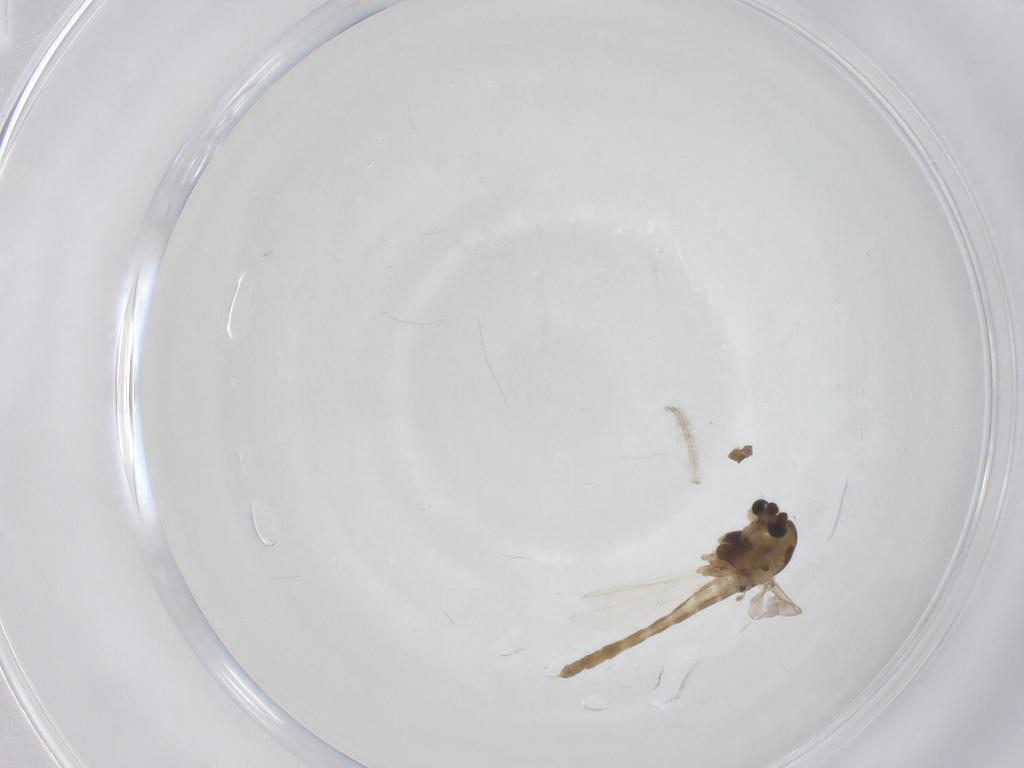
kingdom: Animalia
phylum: Arthropoda
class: Insecta
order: Diptera
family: Chironomidae
